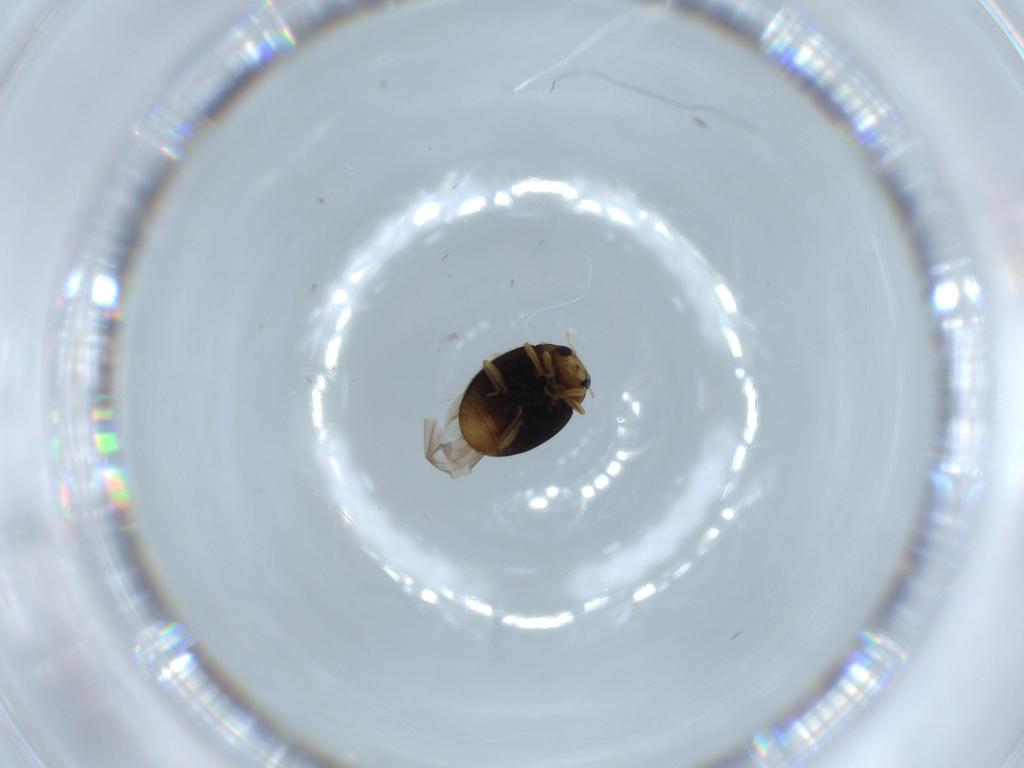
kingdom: Animalia
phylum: Arthropoda
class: Insecta
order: Coleoptera
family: Coccinellidae
